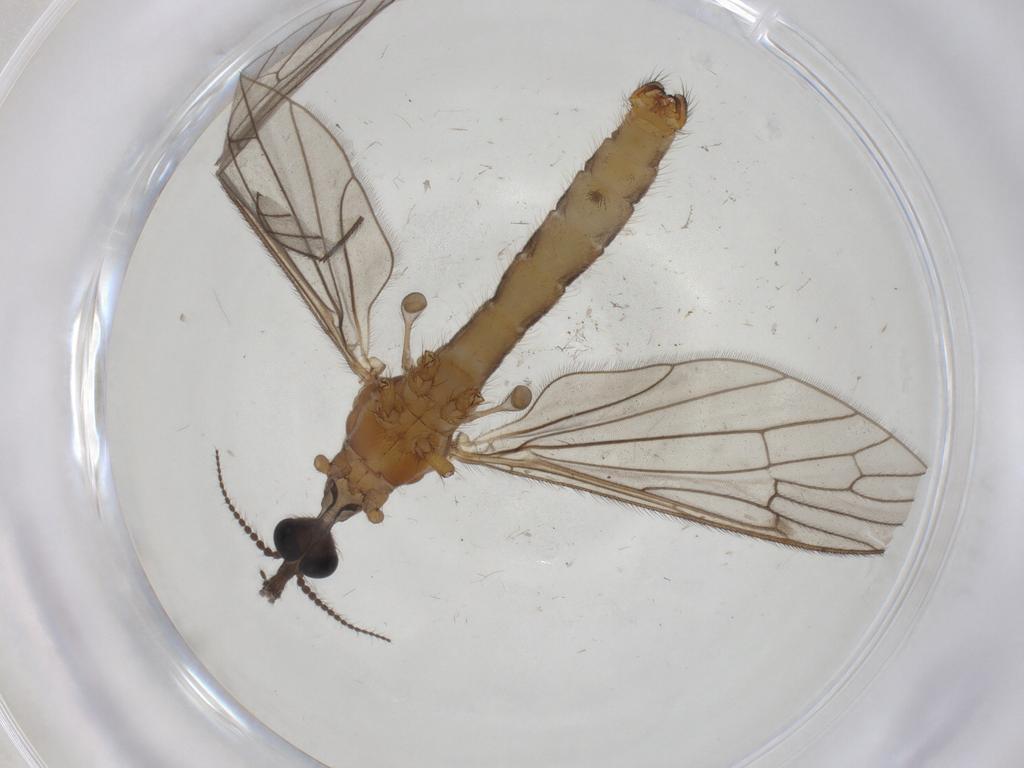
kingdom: Animalia
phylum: Arthropoda
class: Insecta
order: Diptera
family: Limoniidae
